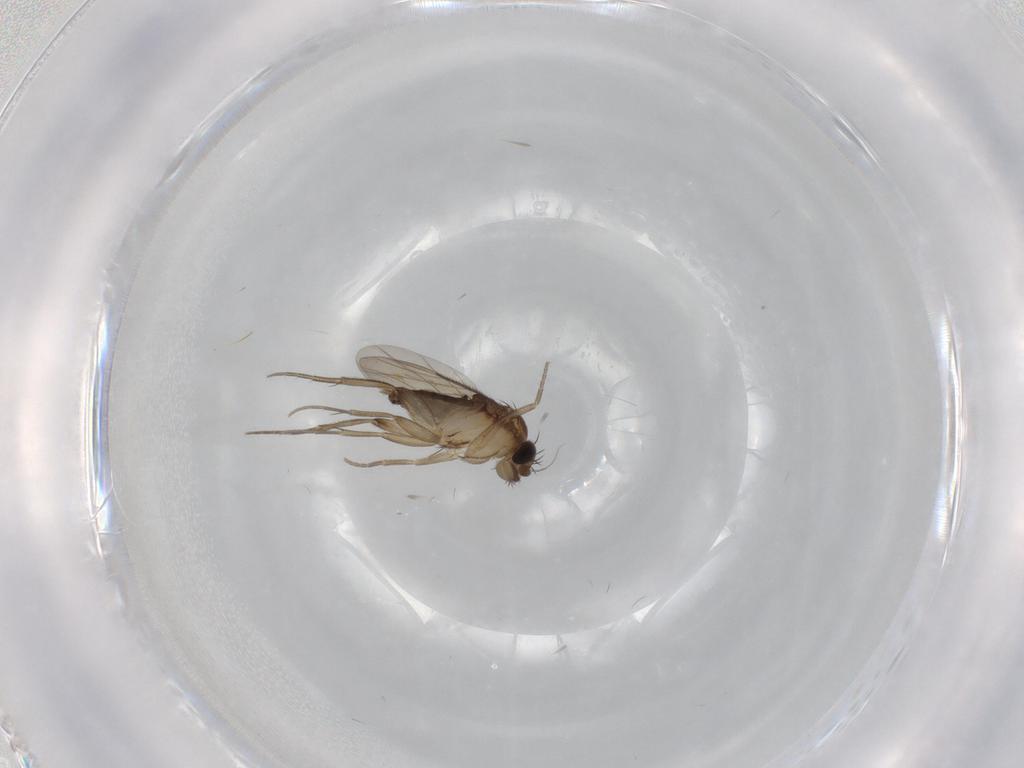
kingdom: Animalia
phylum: Arthropoda
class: Insecta
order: Diptera
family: Phoridae
